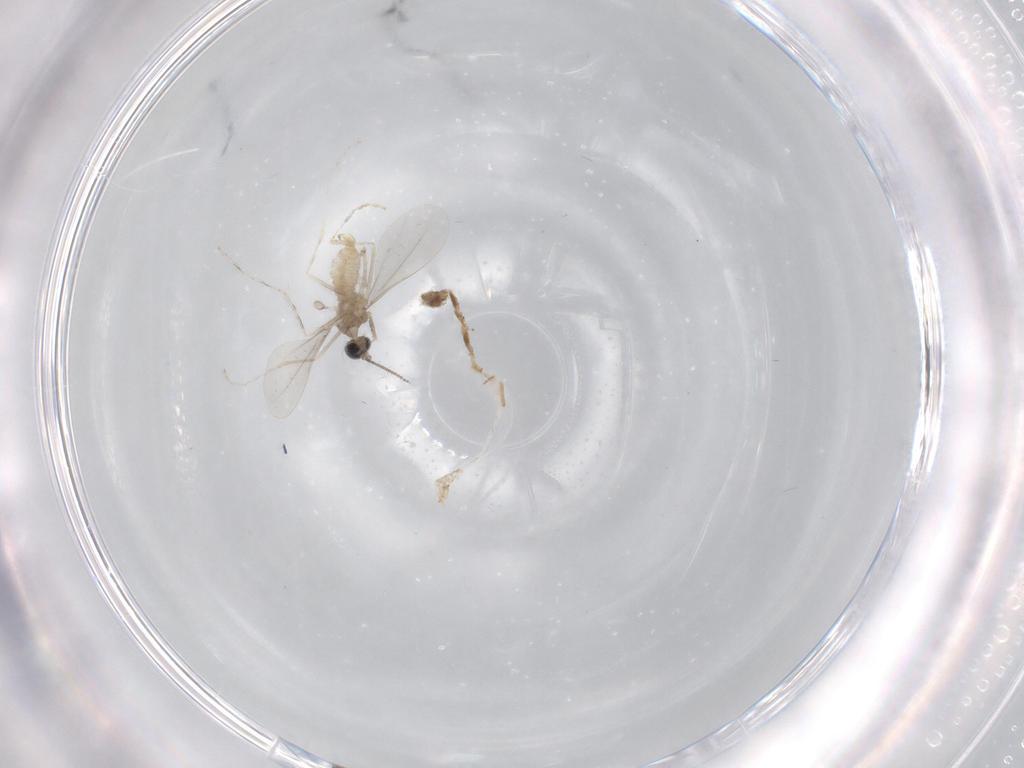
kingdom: Animalia
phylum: Arthropoda
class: Insecta
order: Diptera
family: Cecidomyiidae
